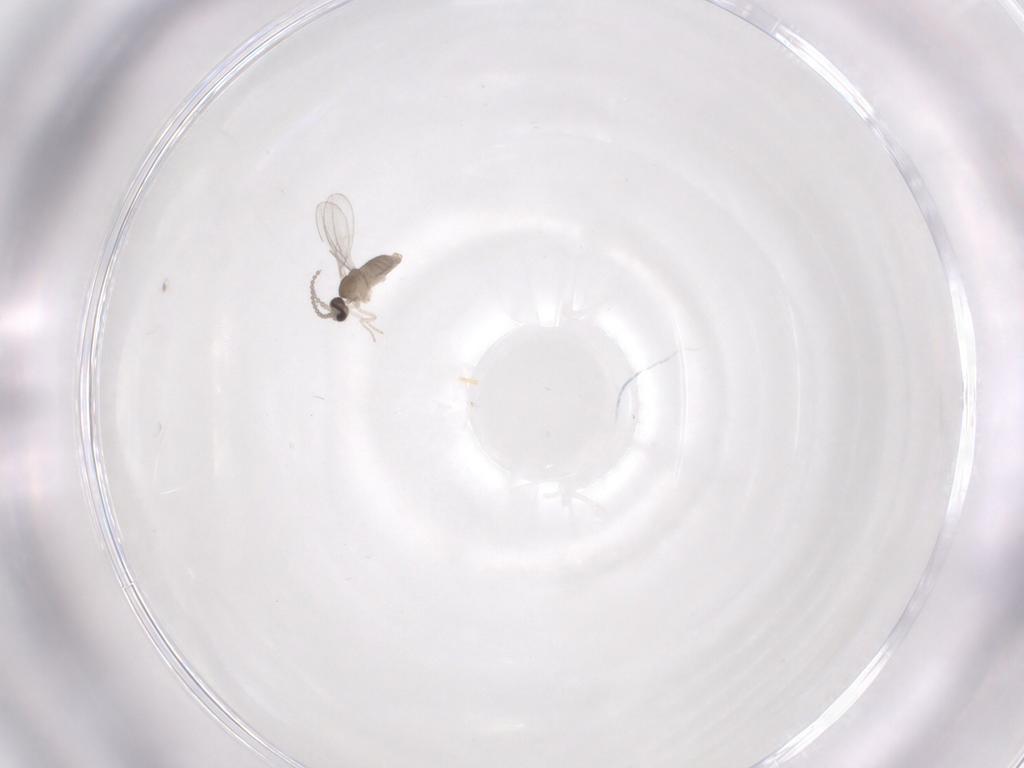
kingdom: Animalia
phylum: Arthropoda
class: Insecta
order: Diptera
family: Cecidomyiidae
